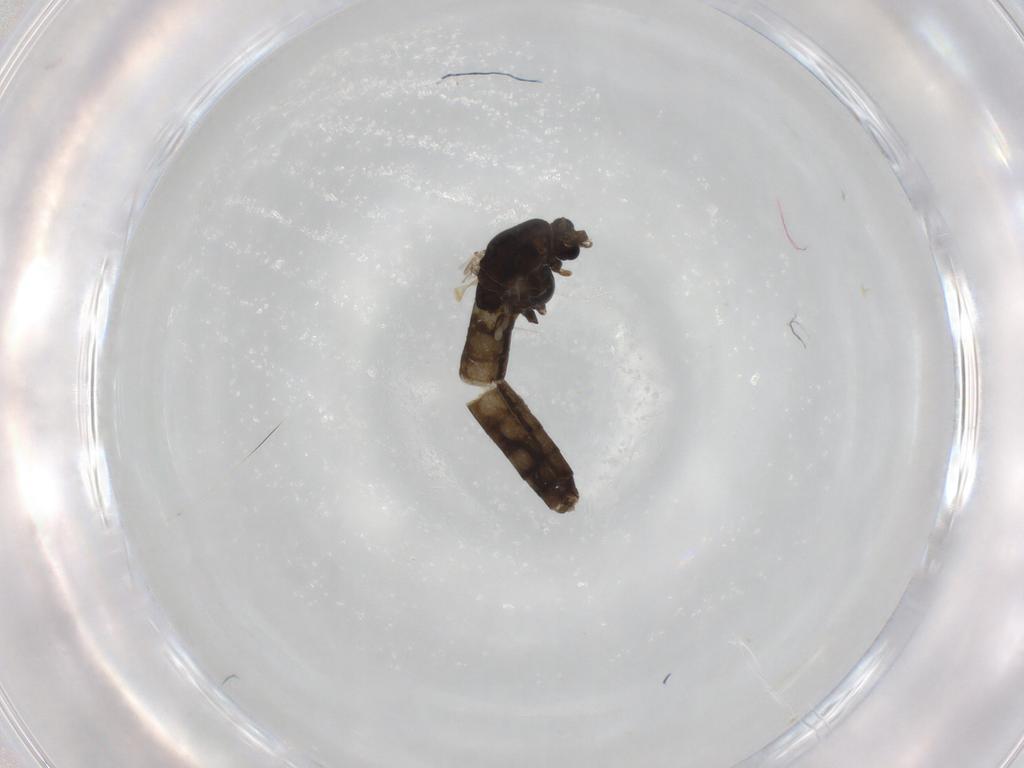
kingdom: Animalia
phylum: Arthropoda
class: Insecta
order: Diptera
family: Chironomidae
